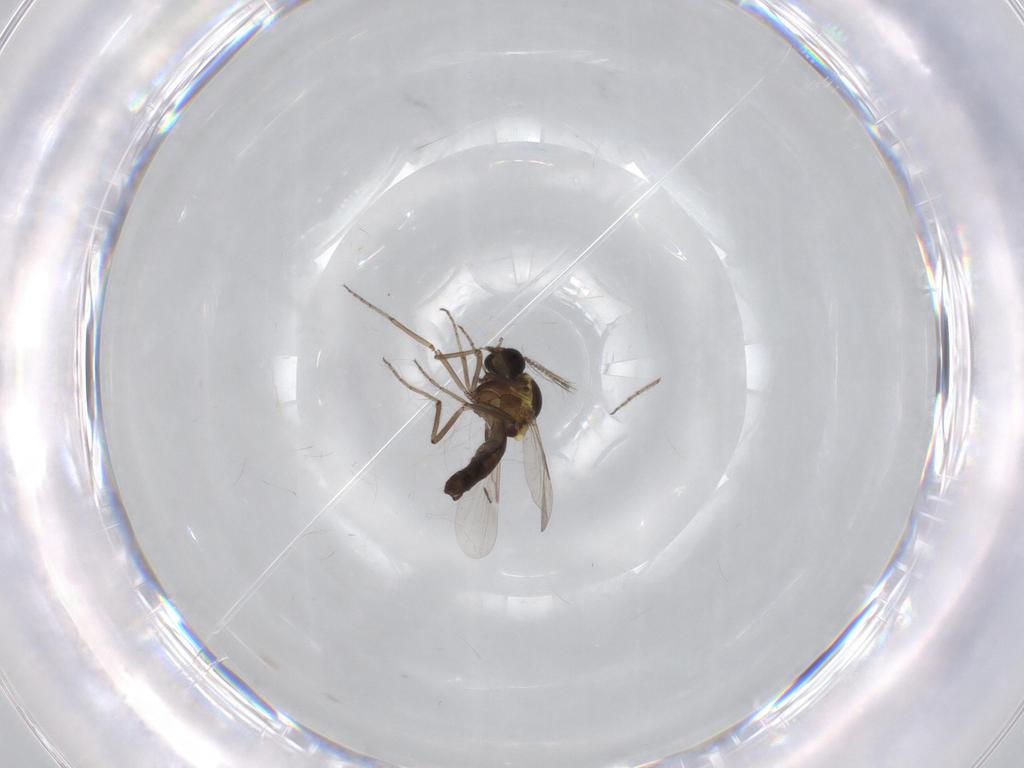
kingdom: Animalia
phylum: Arthropoda
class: Insecta
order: Diptera
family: Ceratopogonidae
